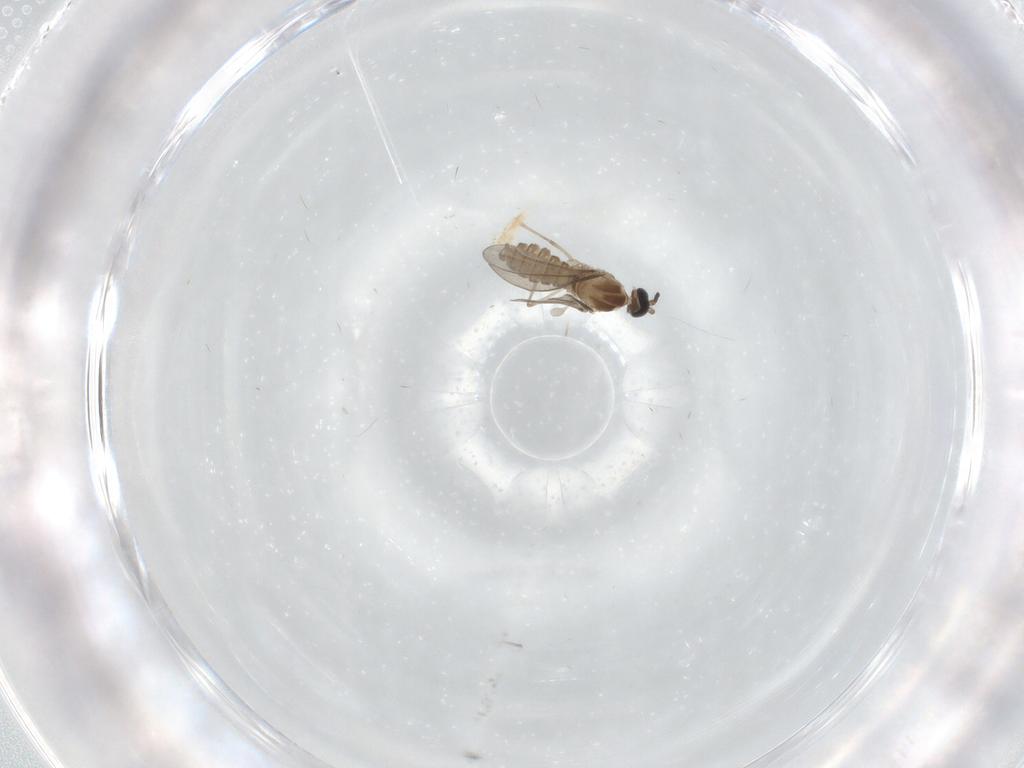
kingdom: Animalia
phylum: Arthropoda
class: Insecta
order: Diptera
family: Cecidomyiidae
